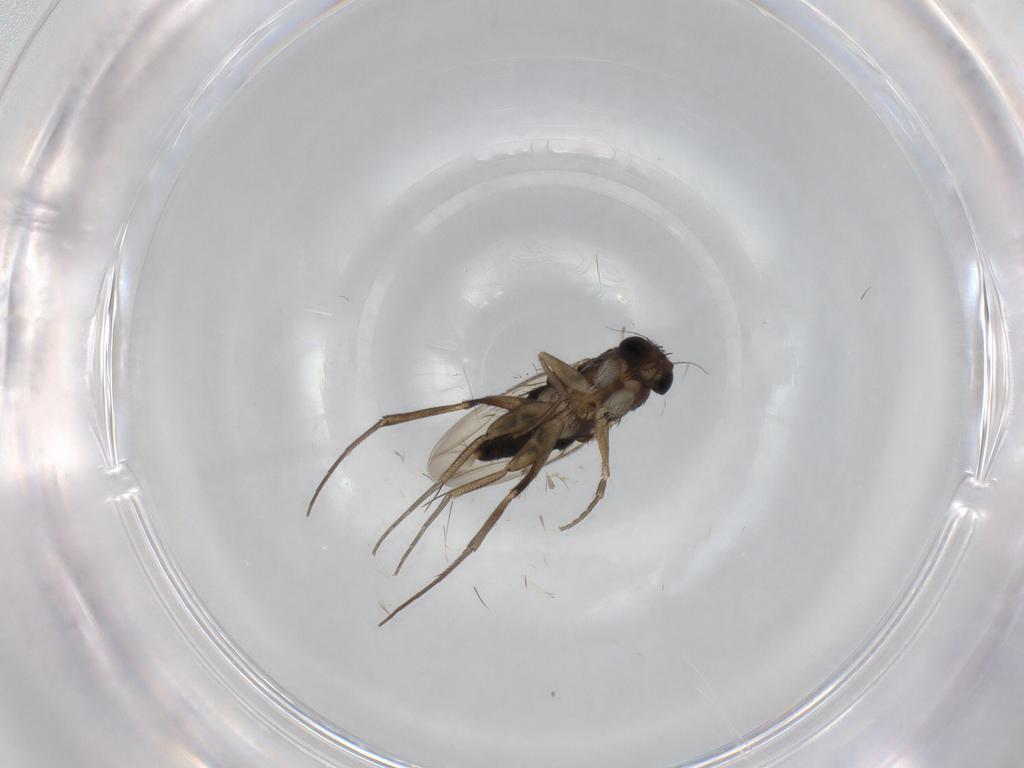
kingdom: Animalia
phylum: Arthropoda
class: Insecta
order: Diptera
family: Phoridae
